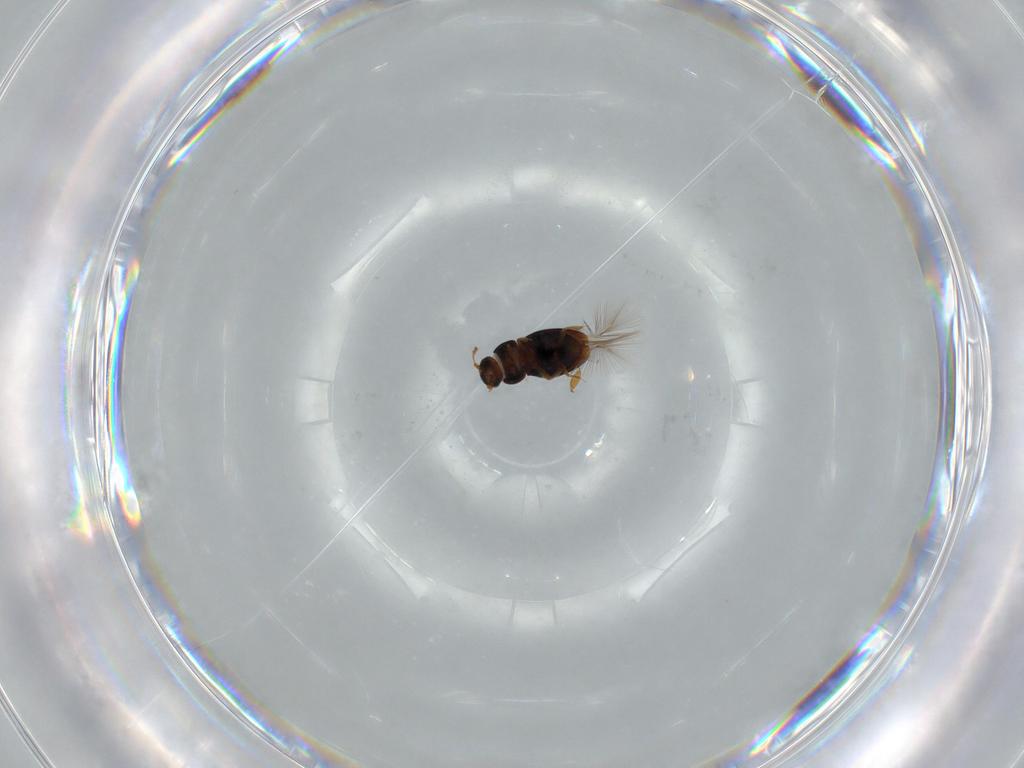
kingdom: Animalia
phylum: Arthropoda
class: Insecta
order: Coleoptera
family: Ptiliidae
